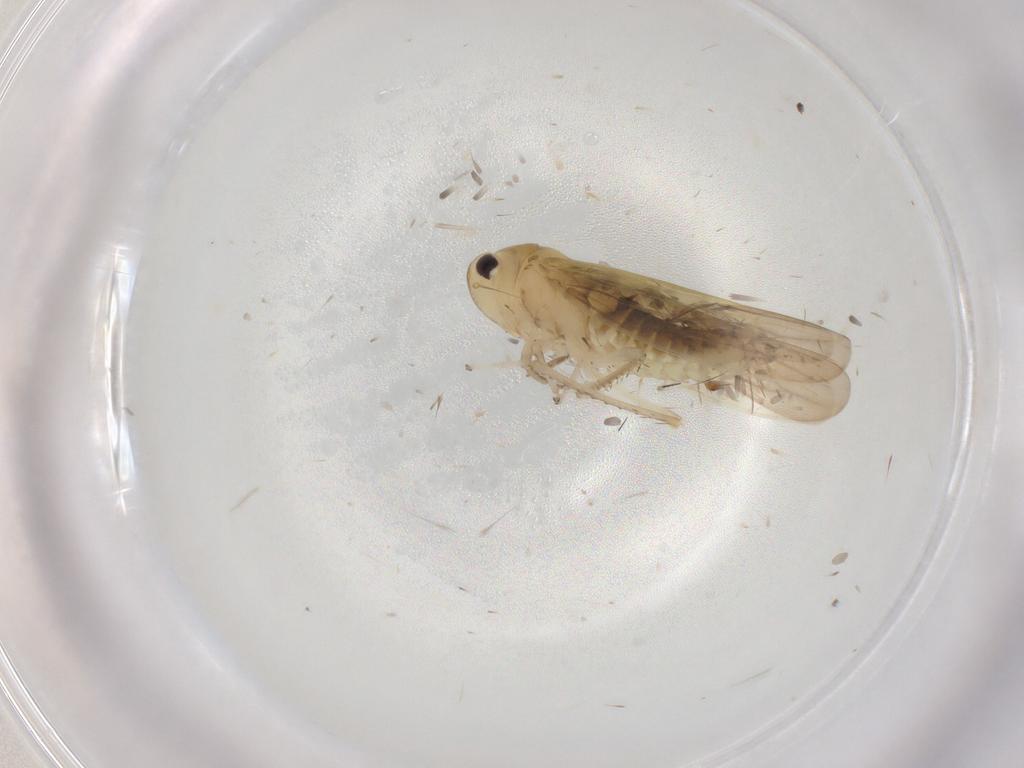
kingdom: Animalia
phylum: Arthropoda
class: Insecta
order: Hemiptera
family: Cicadellidae
